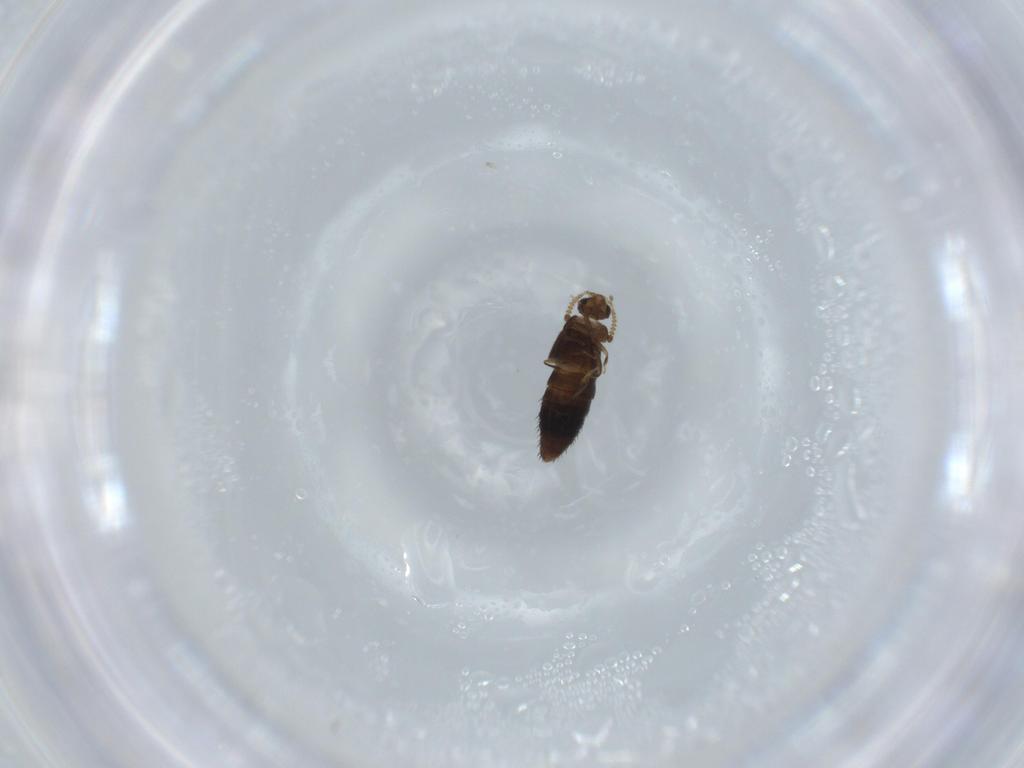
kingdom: Animalia
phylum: Arthropoda
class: Insecta
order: Coleoptera
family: Staphylinidae
